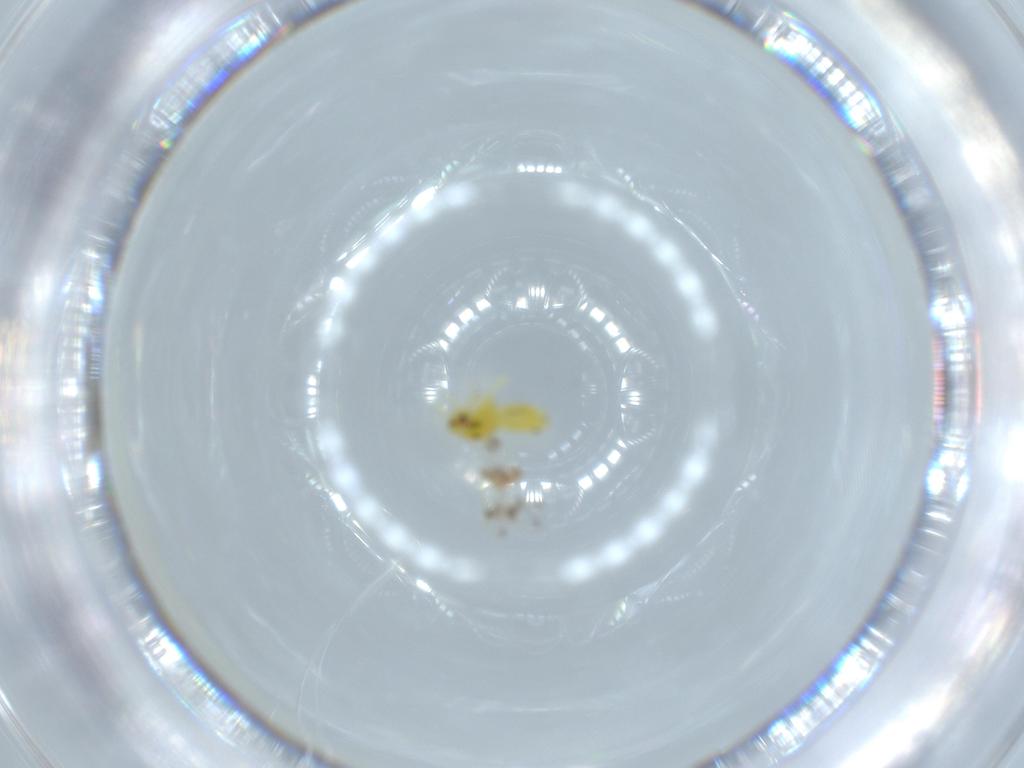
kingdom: Animalia
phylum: Arthropoda
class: Insecta
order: Hemiptera
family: Aleyrodidae
